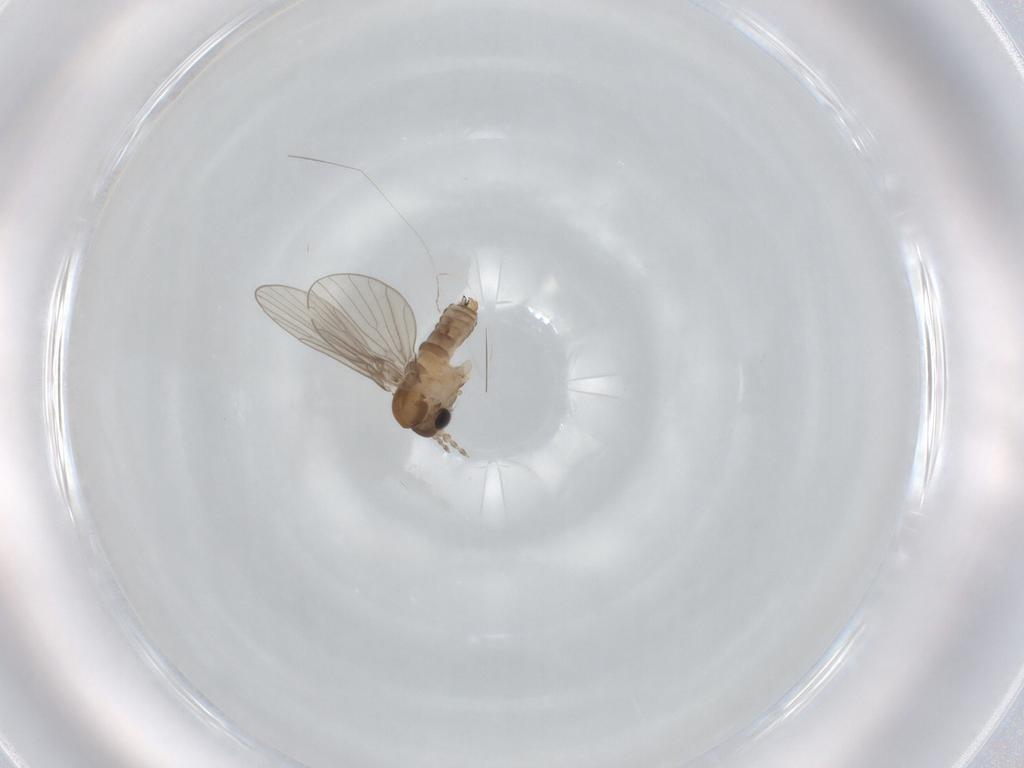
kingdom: Animalia
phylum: Arthropoda
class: Insecta
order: Diptera
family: Psychodidae
